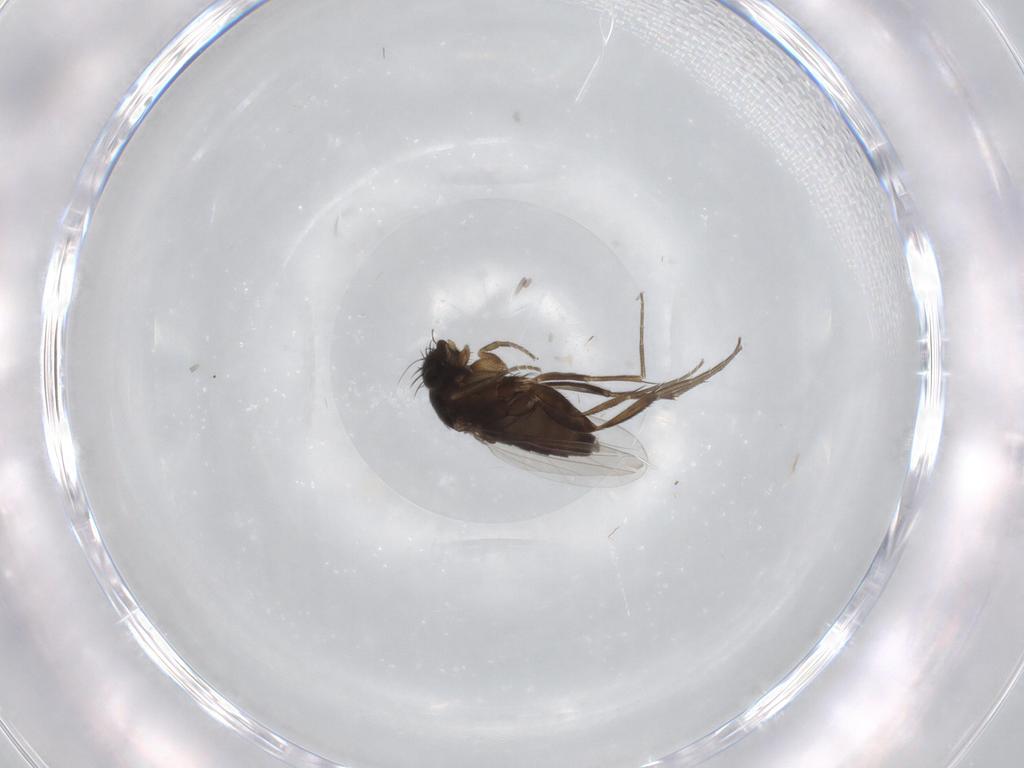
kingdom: Animalia
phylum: Arthropoda
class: Insecta
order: Diptera
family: Phoridae
